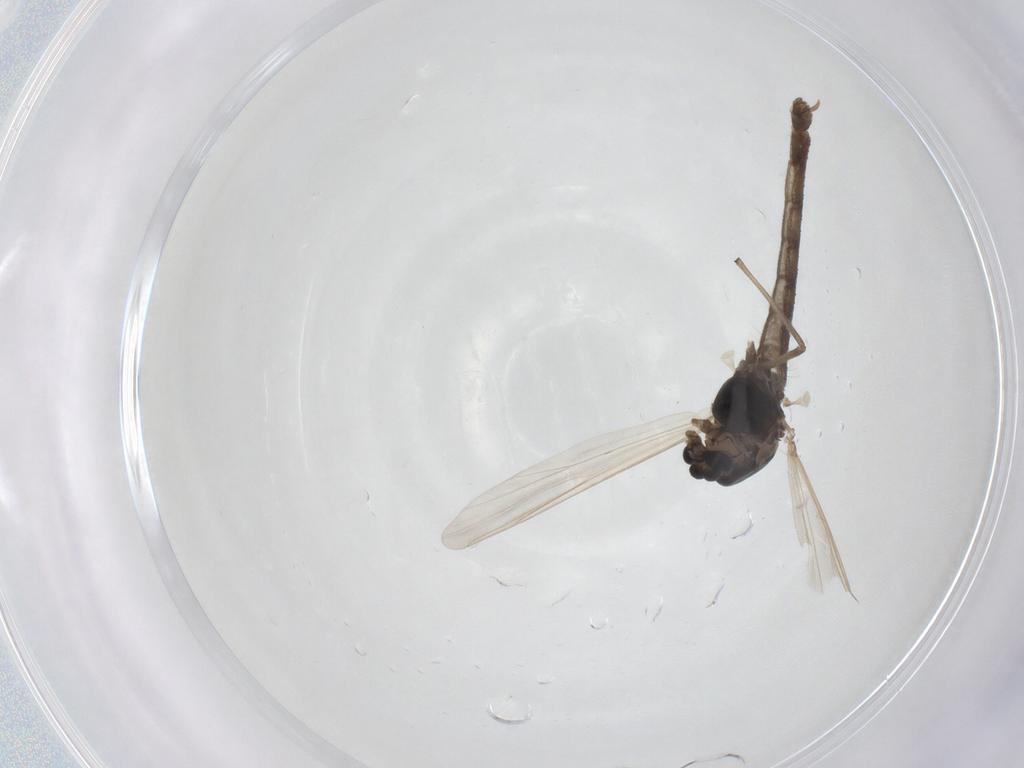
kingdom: Animalia
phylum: Arthropoda
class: Insecta
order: Diptera
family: Chironomidae
